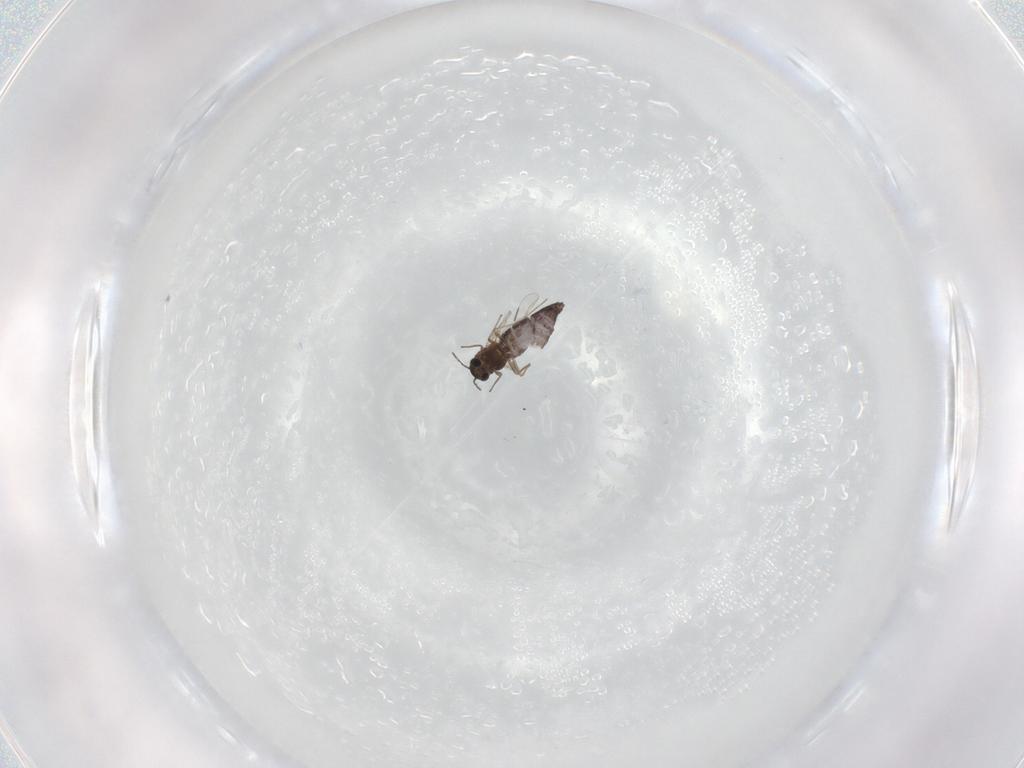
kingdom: Animalia
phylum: Arthropoda
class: Insecta
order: Diptera
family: Chironomidae
